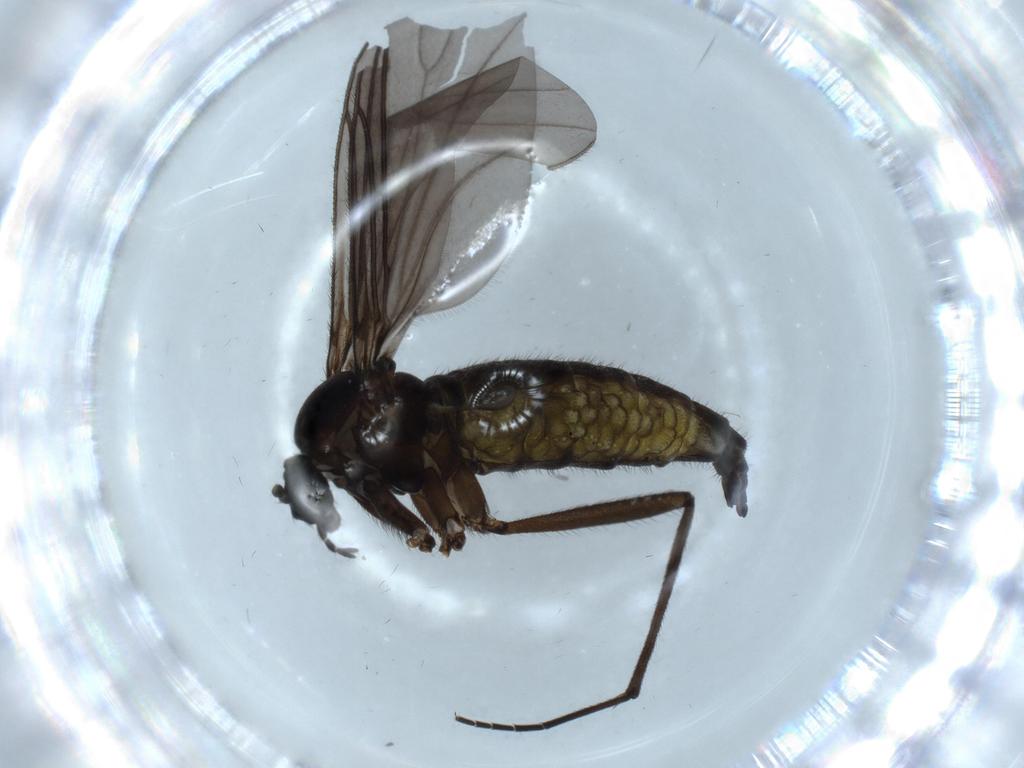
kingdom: Animalia
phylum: Arthropoda
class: Insecta
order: Diptera
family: Sciaridae
